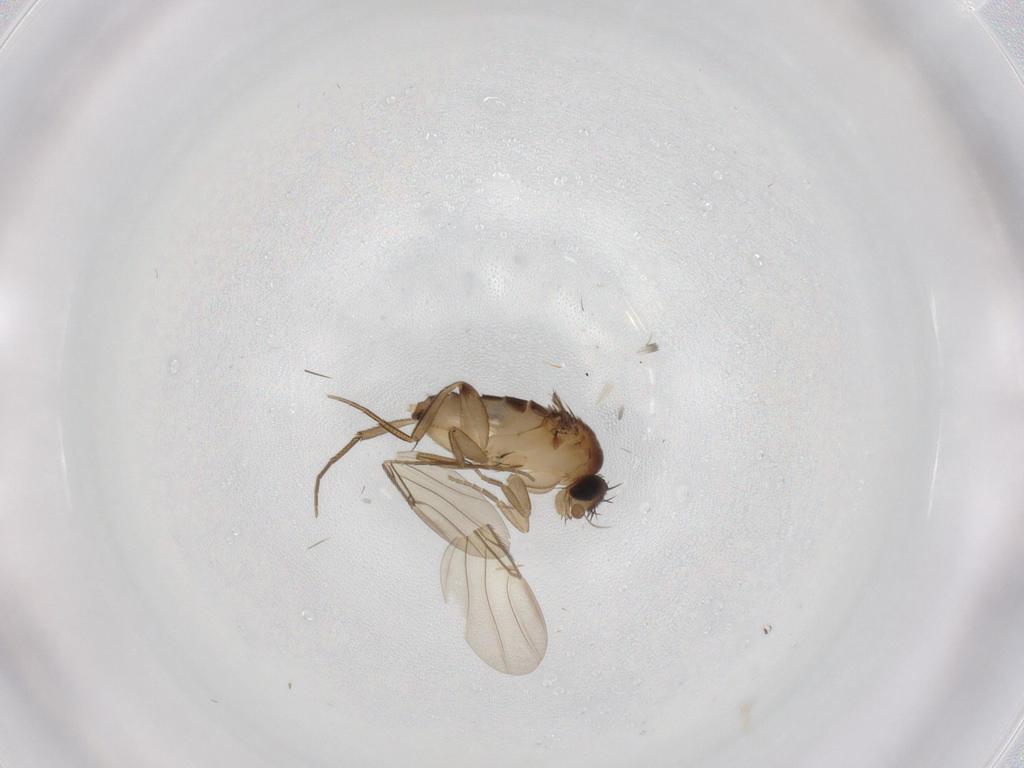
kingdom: Animalia
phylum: Arthropoda
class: Insecta
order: Diptera
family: Phoridae
